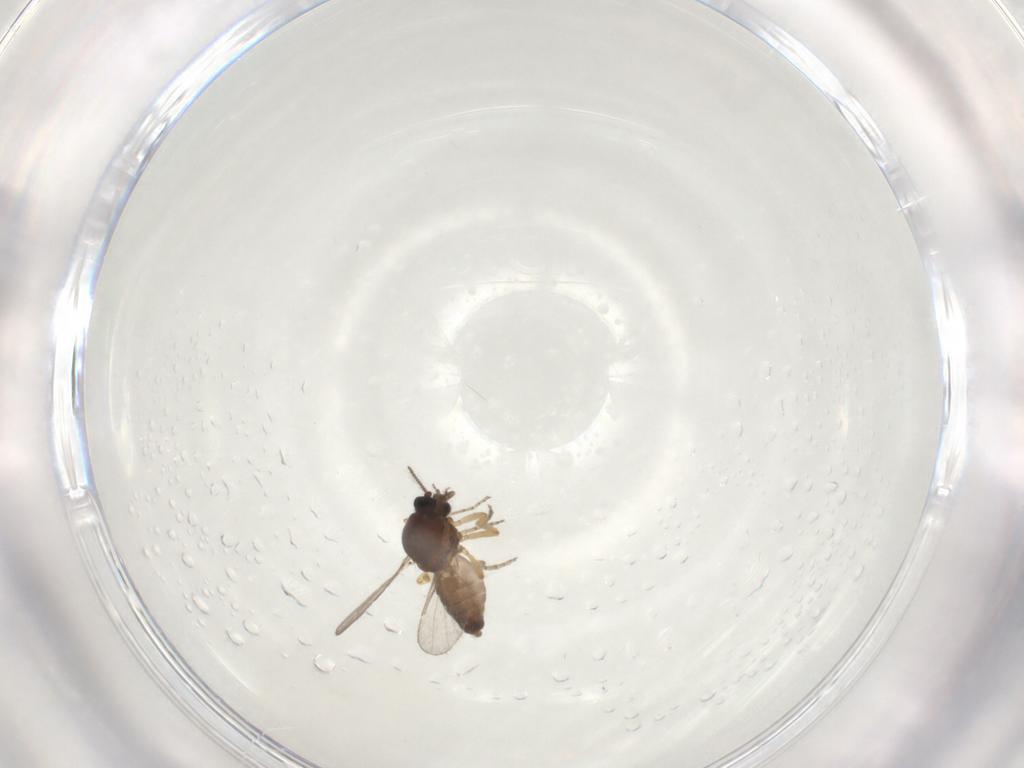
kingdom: Animalia
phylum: Arthropoda
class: Insecta
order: Diptera
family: Ceratopogonidae
